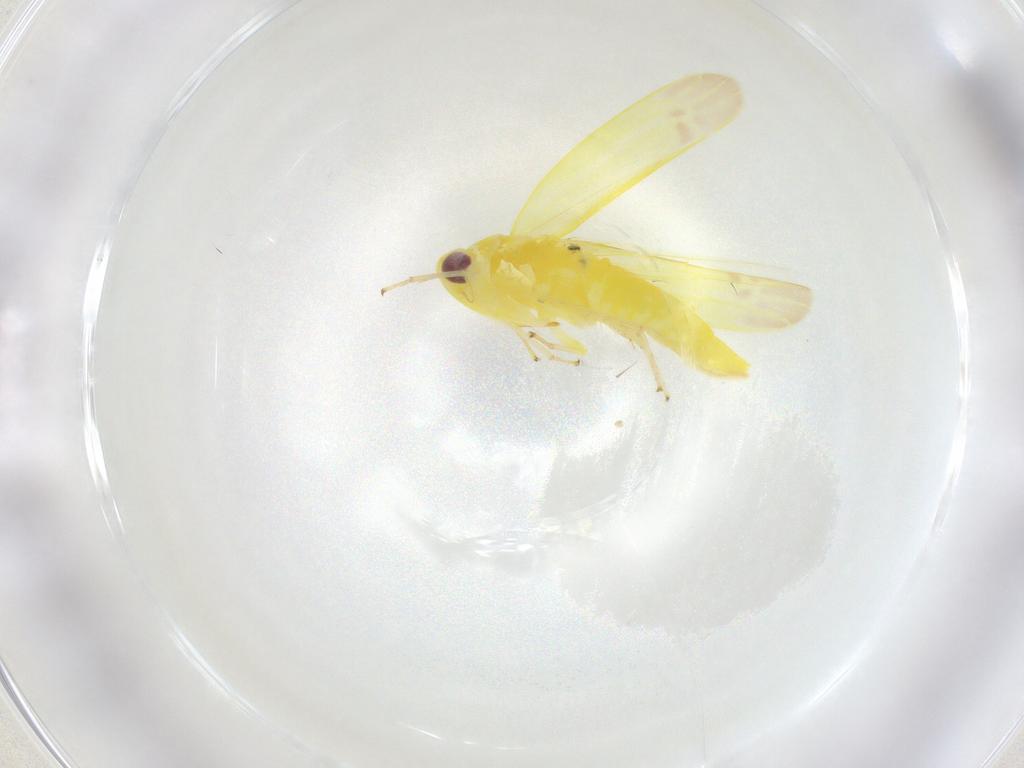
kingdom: Animalia
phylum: Arthropoda
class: Insecta
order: Hemiptera
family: Cicadellidae
